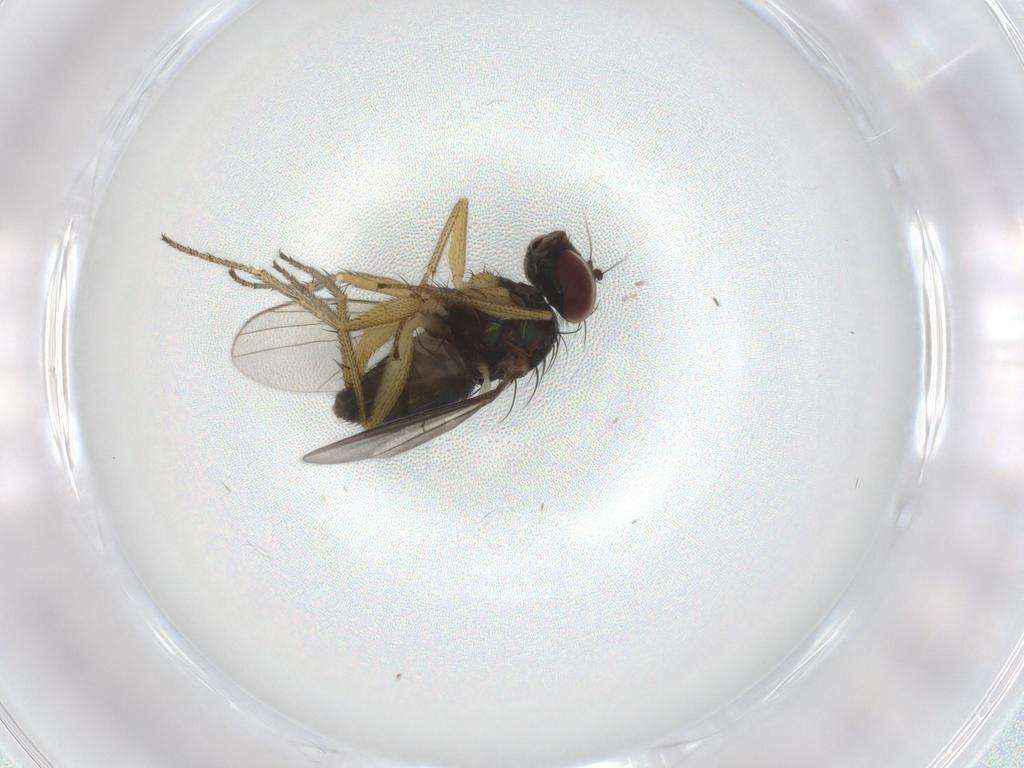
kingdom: Animalia
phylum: Arthropoda
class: Insecta
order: Diptera
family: Dolichopodidae
